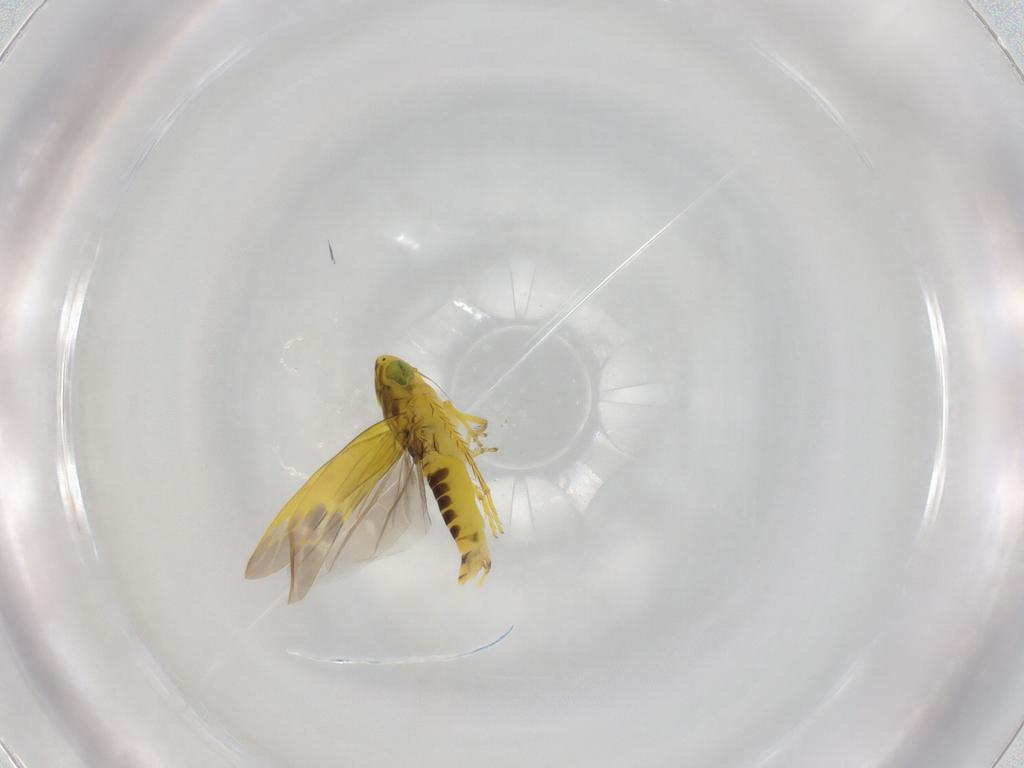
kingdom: Animalia
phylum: Arthropoda
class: Insecta
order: Hemiptera
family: Cicadellidae
